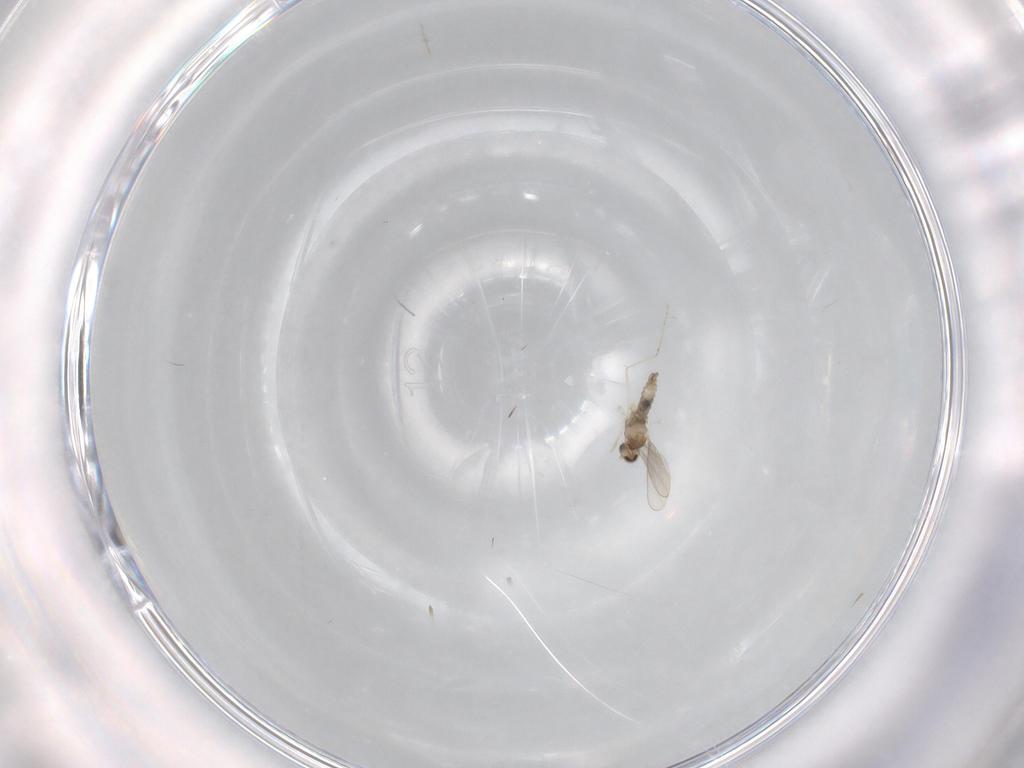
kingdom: Animalia
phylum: Arthropoda
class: Insecta
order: Diptera
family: Cecidomyiidae
